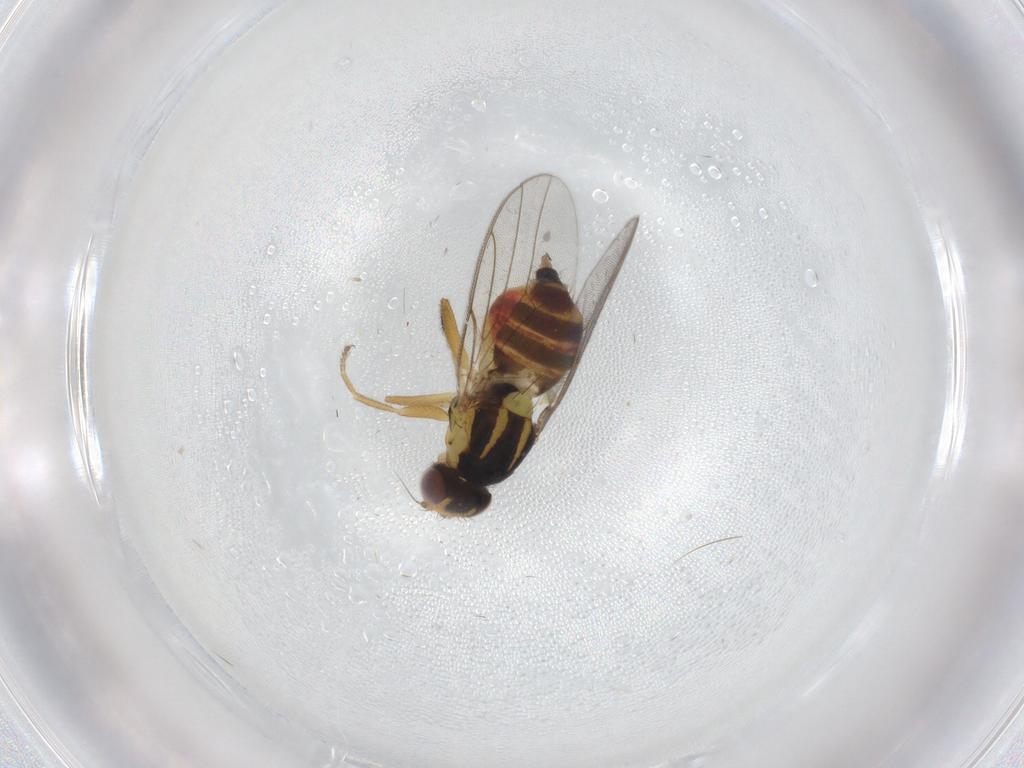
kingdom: Animalia
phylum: Arthropoda
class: Insecta
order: Diptera
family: Chloropidae
